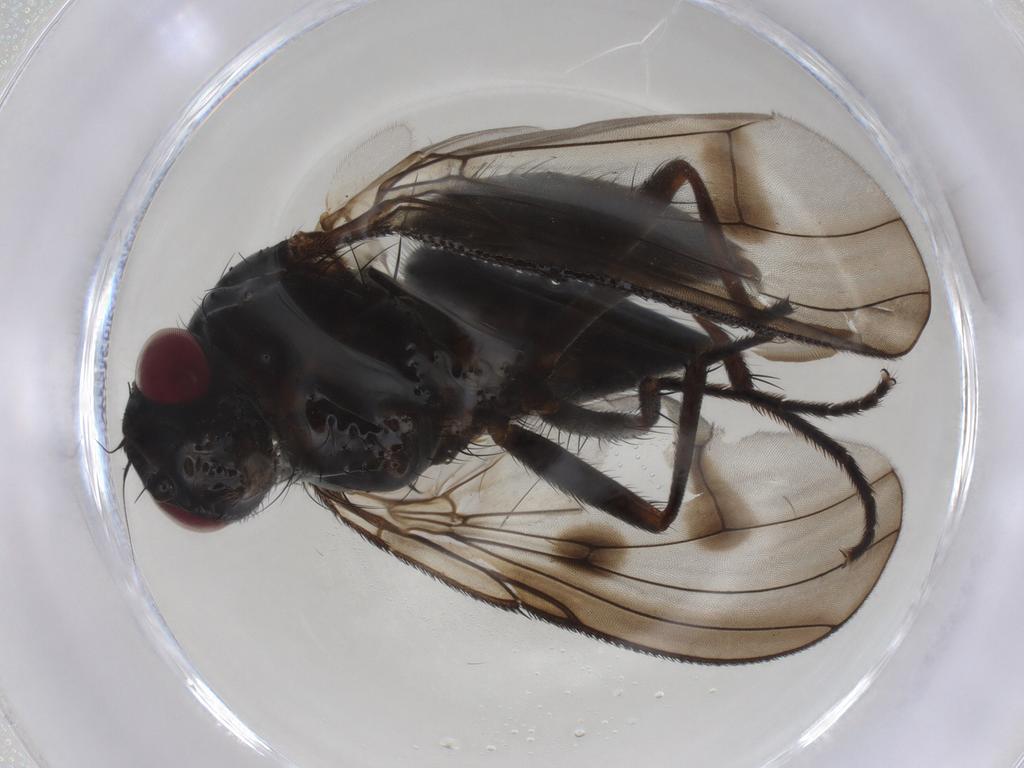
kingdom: Animalia
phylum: Arthropoda
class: Insecta
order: Diptera
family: Muscidae
